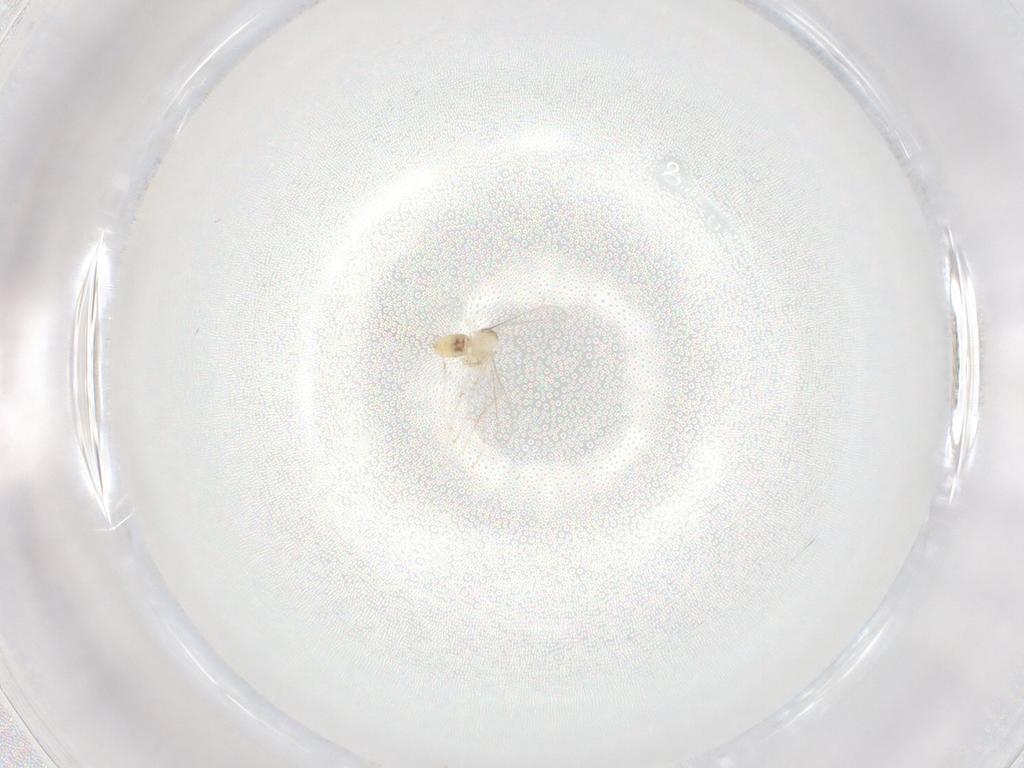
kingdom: Animalia
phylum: Arthropoda
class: Insecta
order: Diptera
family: Cecidomyiidae
